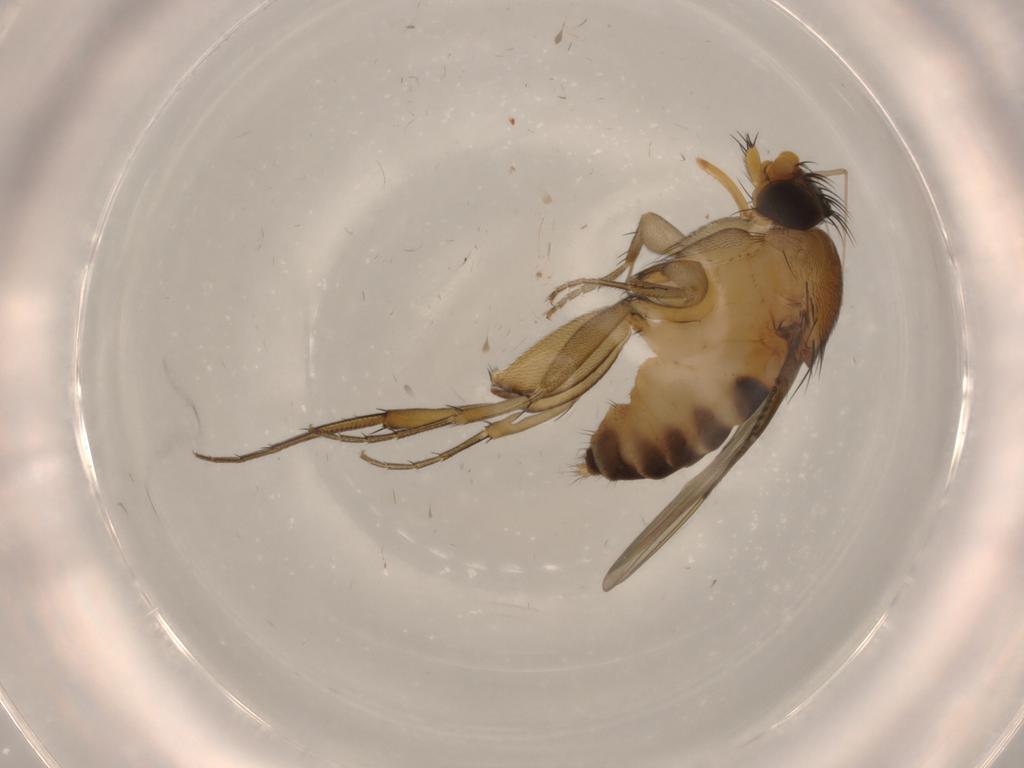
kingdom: Animalia
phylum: Arthropoda
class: Insecta
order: Diptera
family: Phoridae
